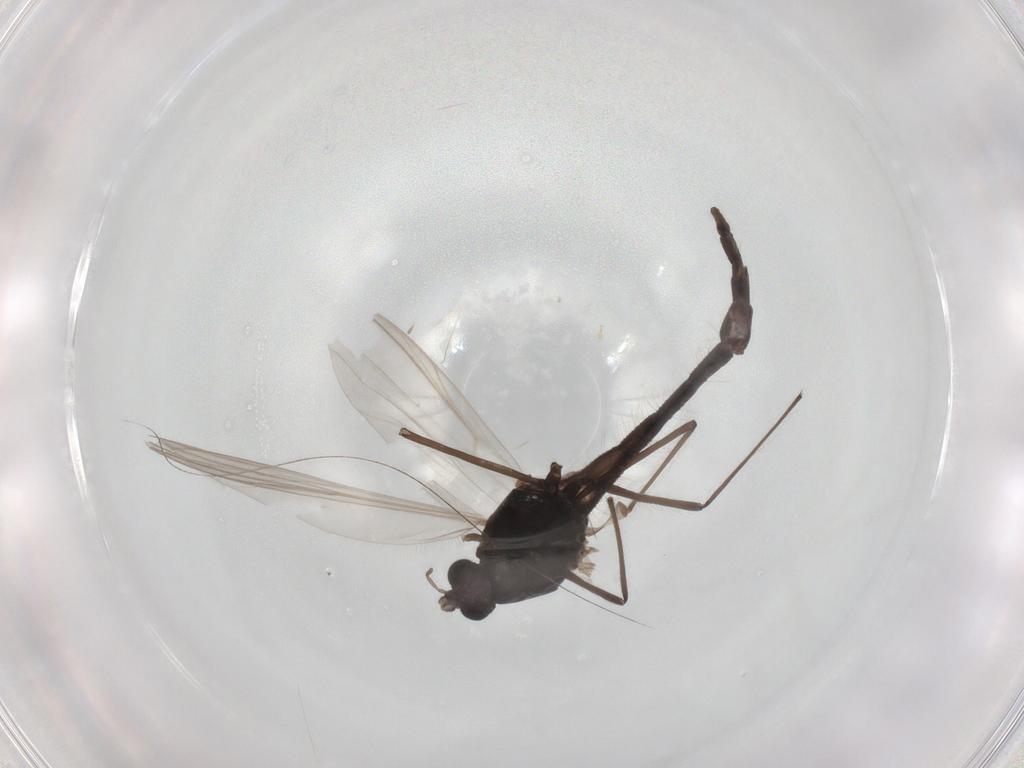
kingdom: Animalia
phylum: Arthropoda
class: Insecta
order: Diptera
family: Chironomidae
